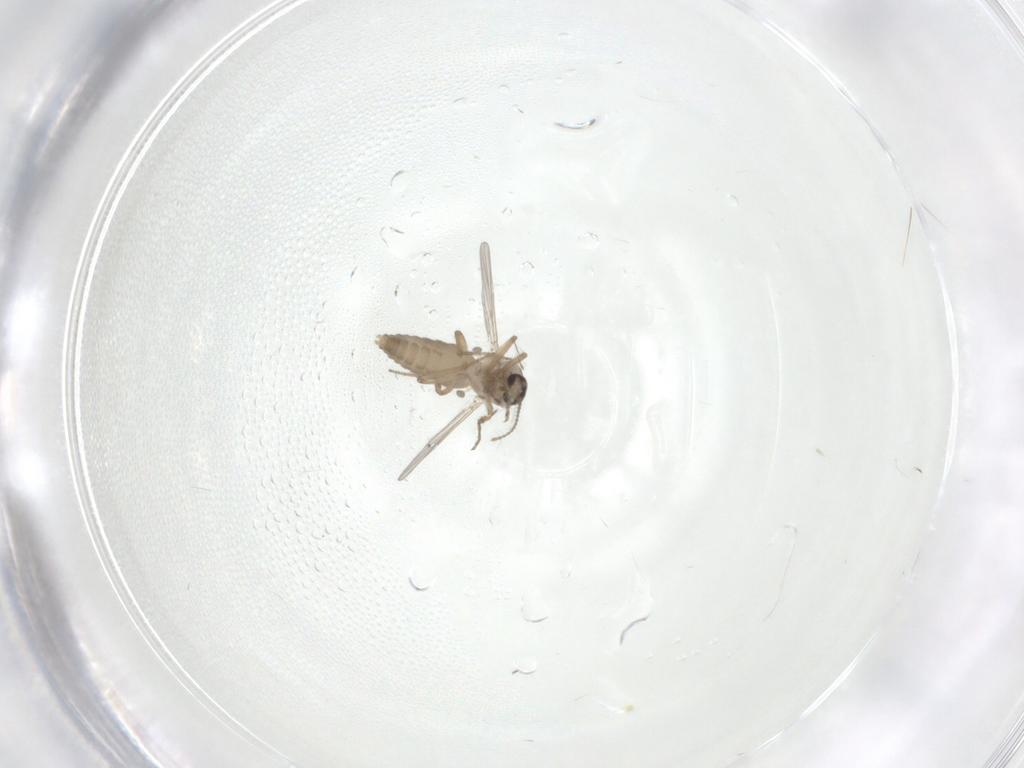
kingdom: Animalia
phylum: Arthropoda
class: Insecta
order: Diptera
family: Ceratopogonidae
